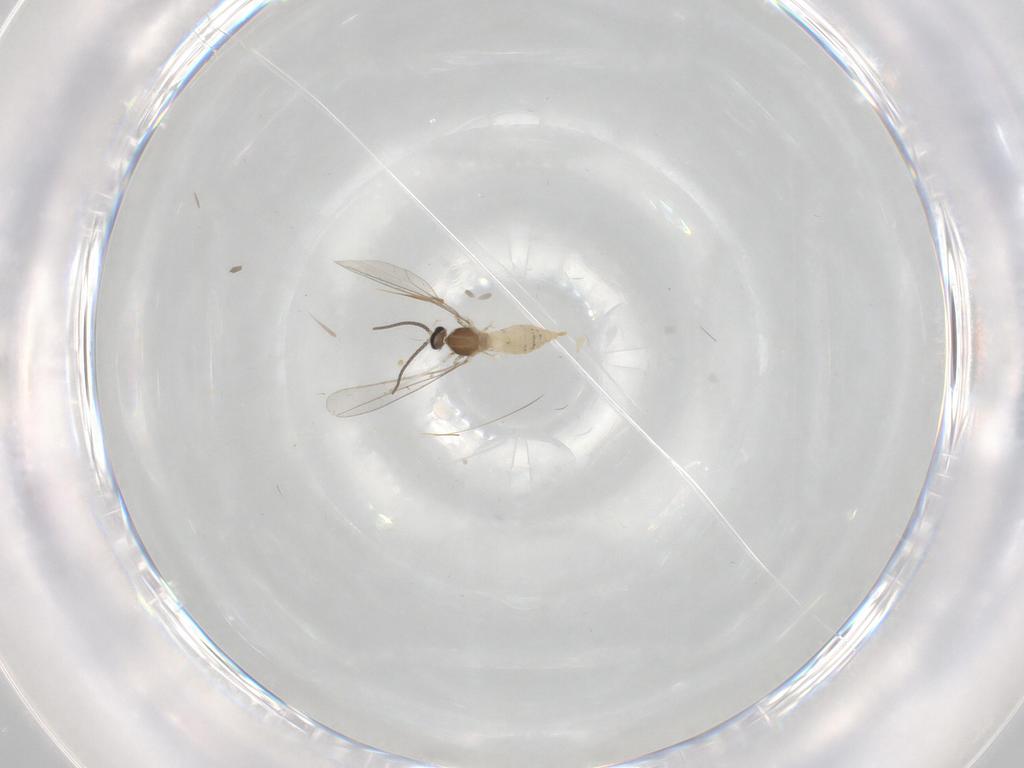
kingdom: Animalia
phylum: Arthropoda
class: Insecta
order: Diptera
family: Cecidomyiidae
